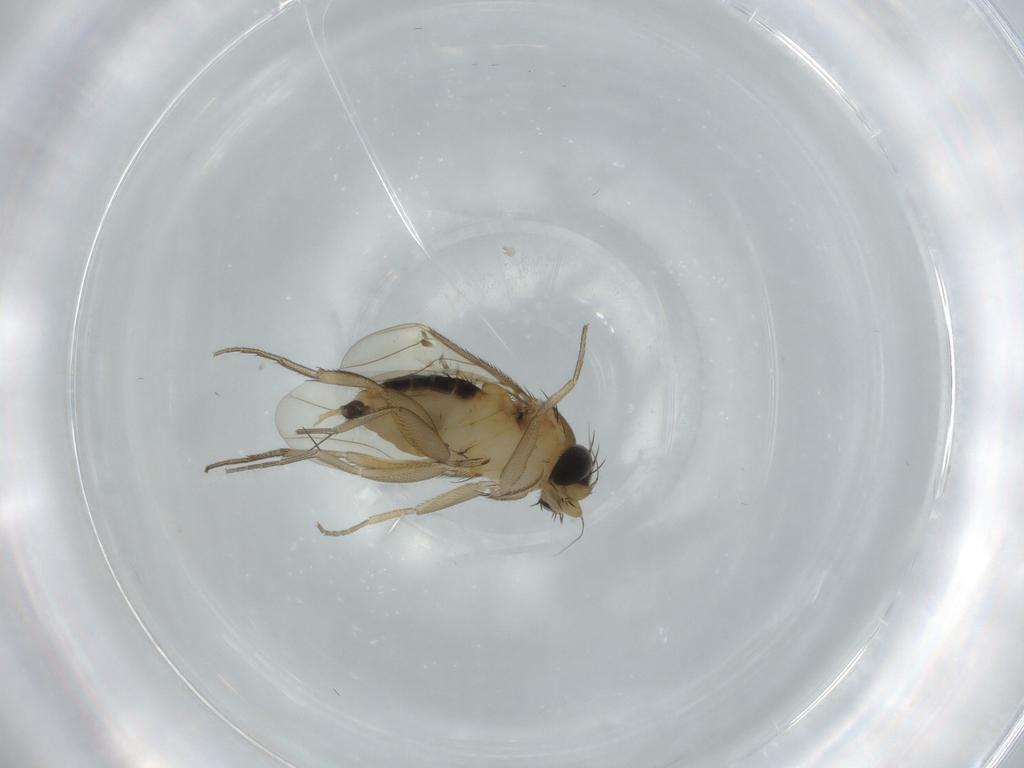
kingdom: Animalia
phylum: Arthropoda
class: Insecta
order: Diptera
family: Phoridae
